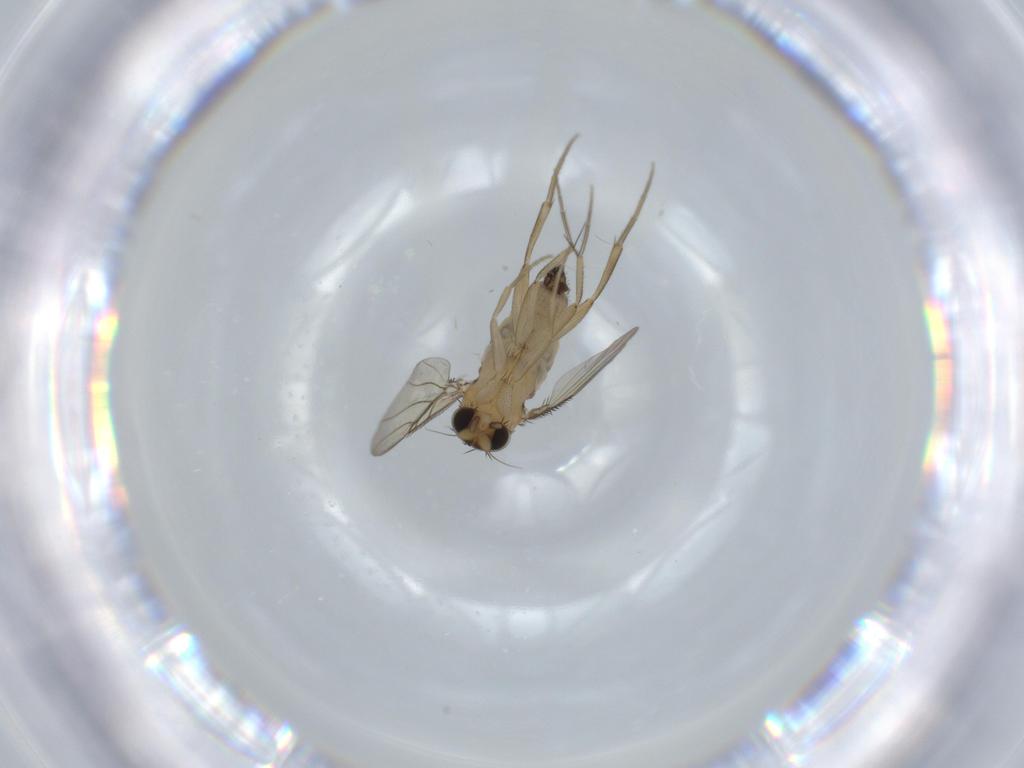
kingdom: Animalia
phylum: Arthropoda
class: Insecta
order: Diptera
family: Phoridae
